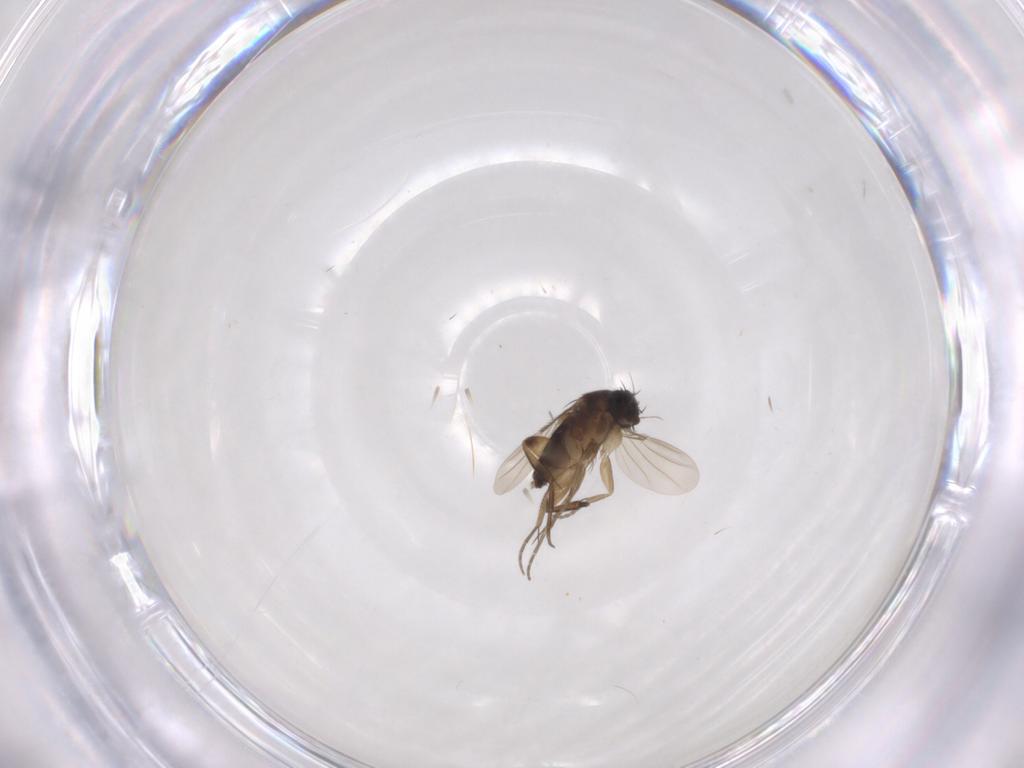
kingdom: Animalia
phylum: Arthropoda
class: Insecta
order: Diptera
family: Phoridae
